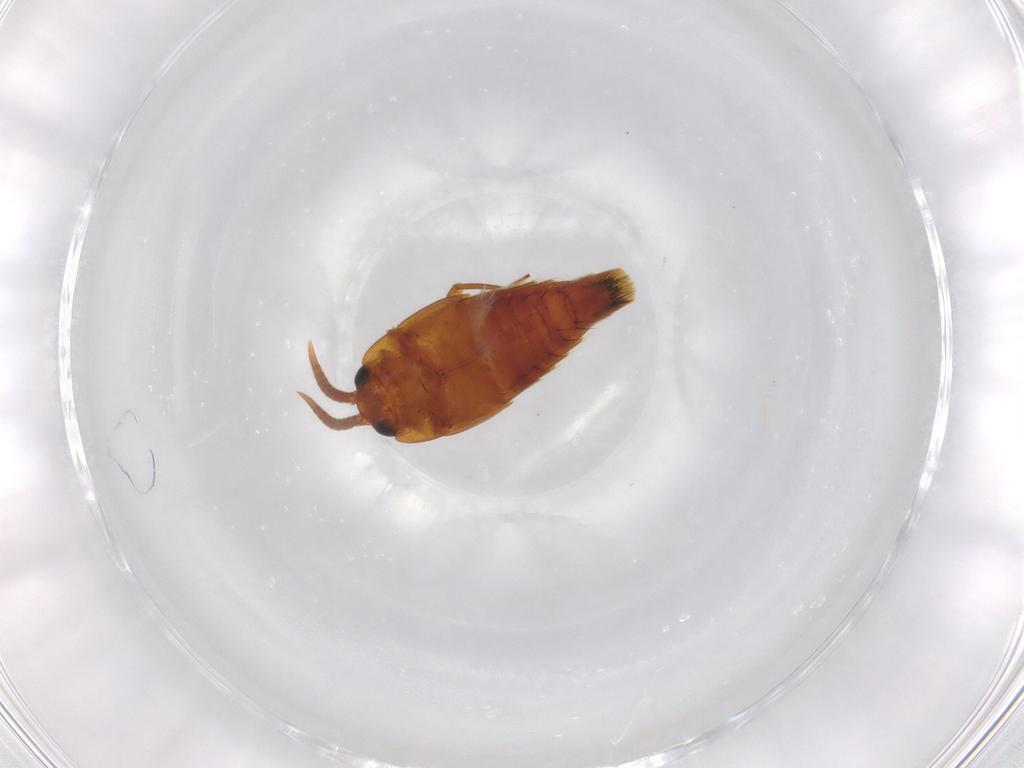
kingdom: Animalia
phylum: Arthropoda
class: Insecta
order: Coleoptera
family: Staphylinidae
